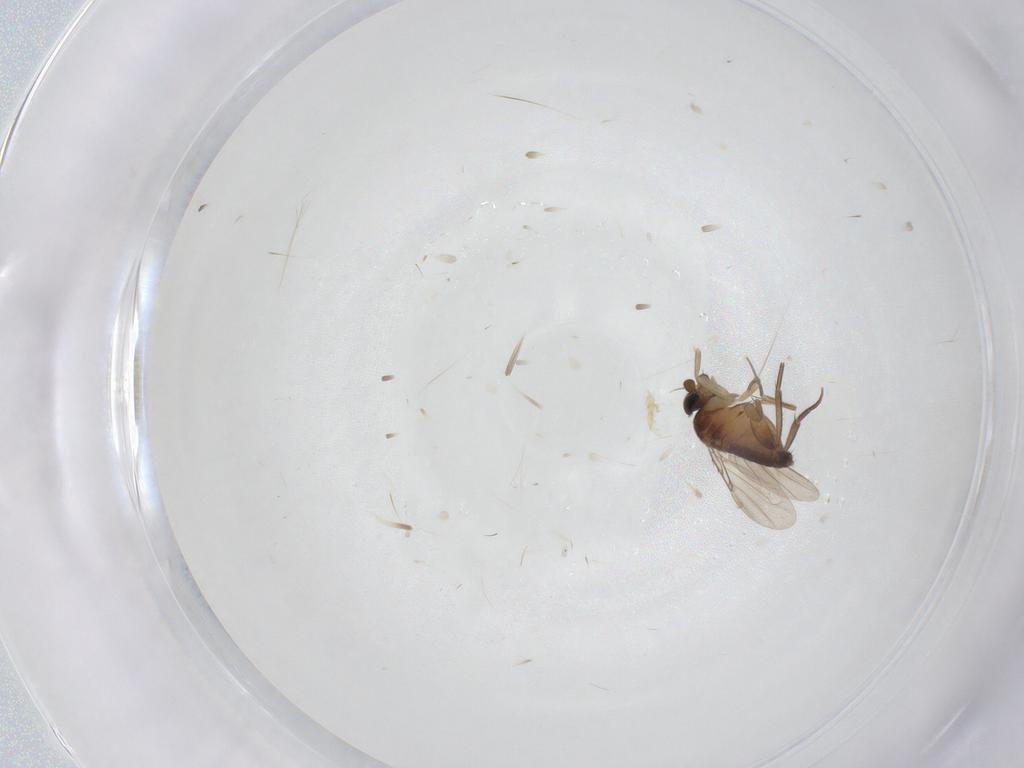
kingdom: Animalia
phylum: Arthropoda
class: Insecta
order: Diptera
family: Phoridae
